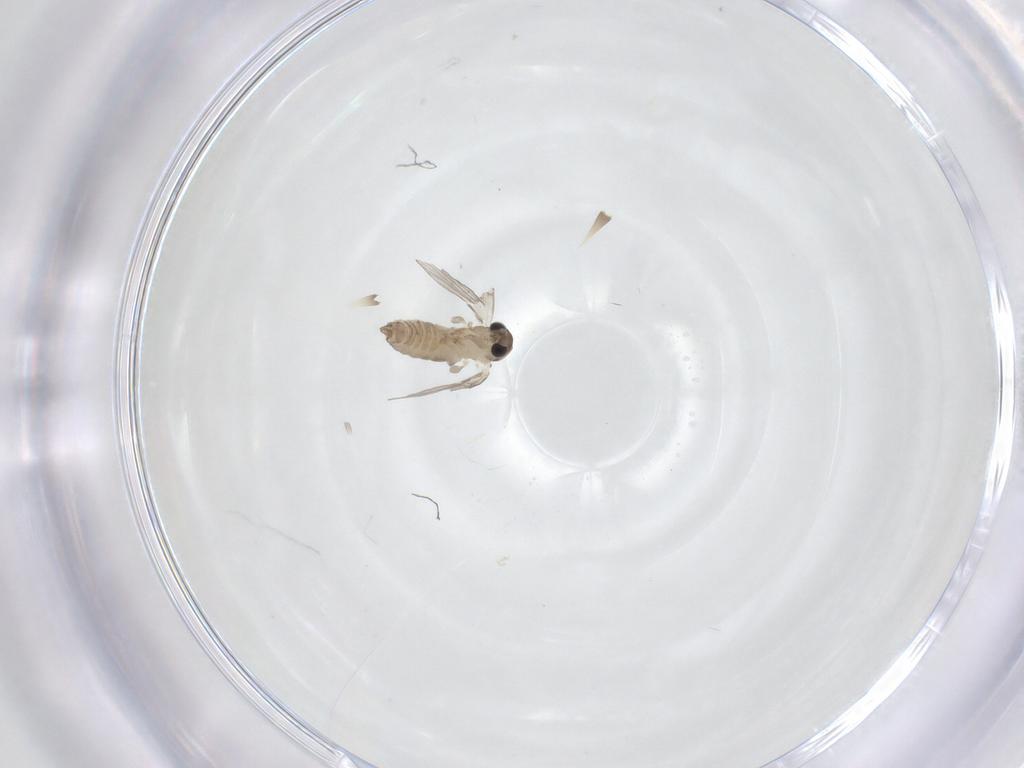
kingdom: Animalia
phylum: Arthropoda
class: Insecta
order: Diptera
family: Psychodidae
